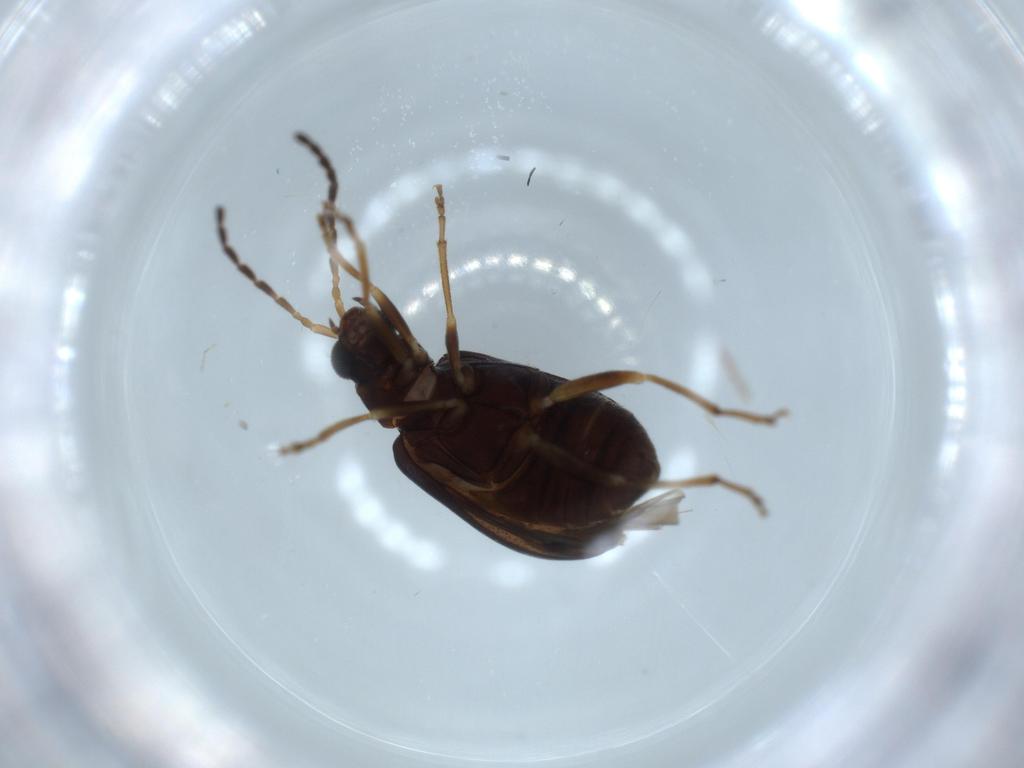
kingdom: Animalia
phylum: Arthropoda
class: Insecta
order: Coleoptera
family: Chrysomelidae
